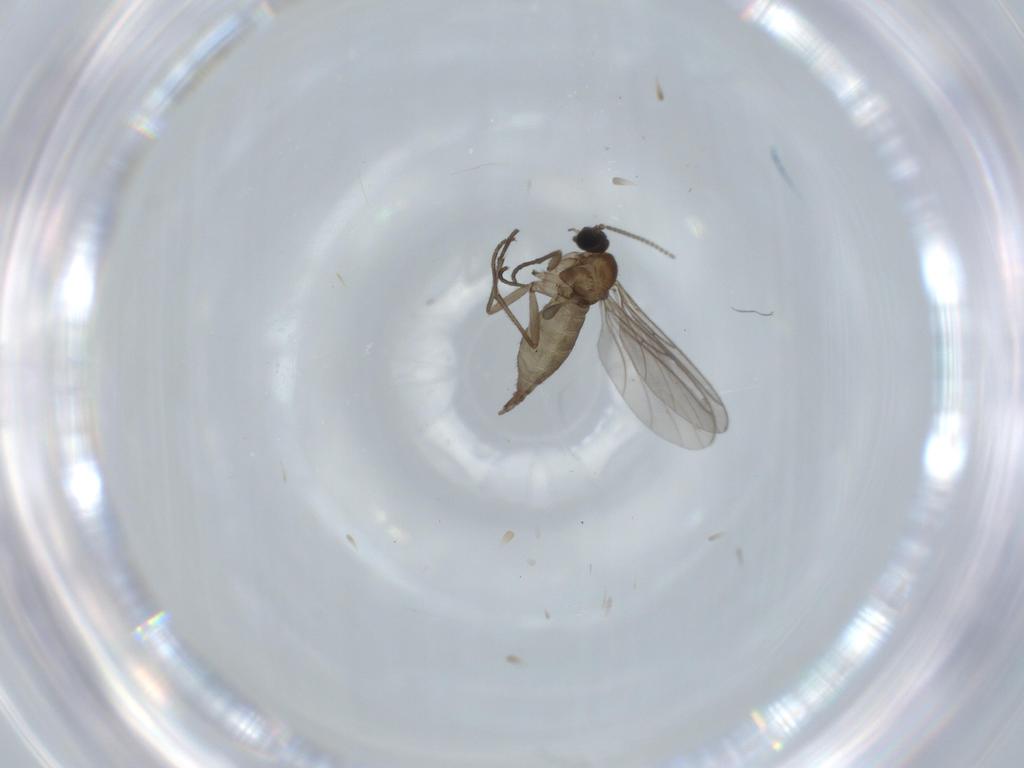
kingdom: Animalia
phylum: Arthropoda
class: Insecta
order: Diptera
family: Sciaridae
